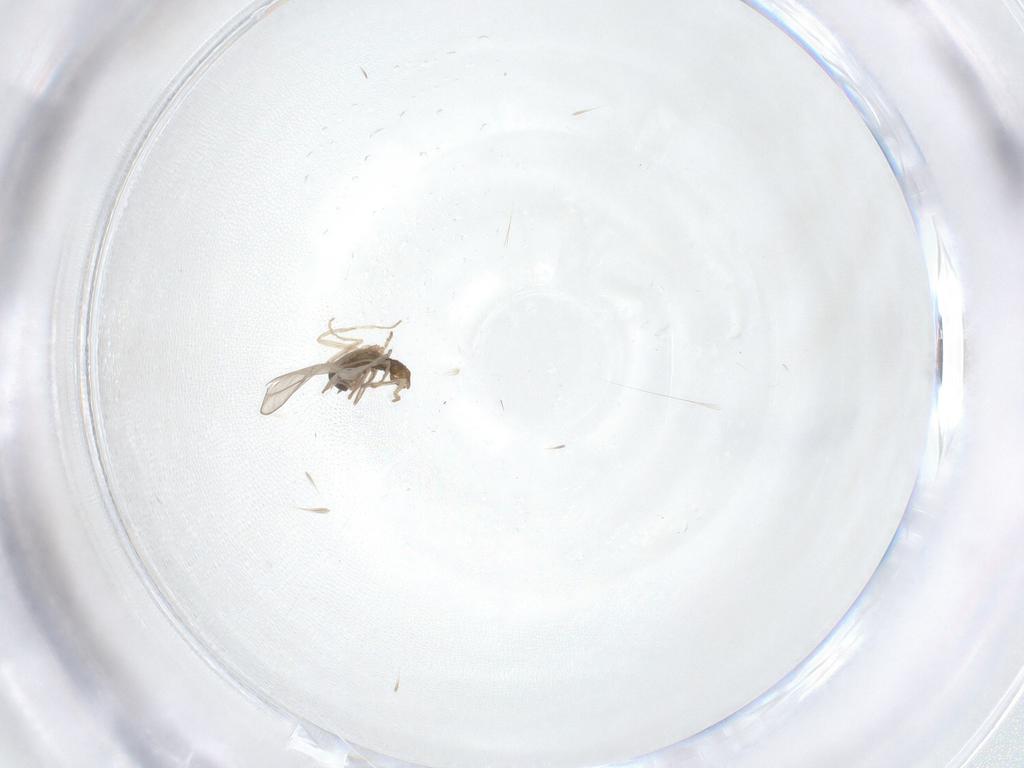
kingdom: Animalia
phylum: Arthropoda
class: Insecta
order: Diptera
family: Cecidomyiidae
